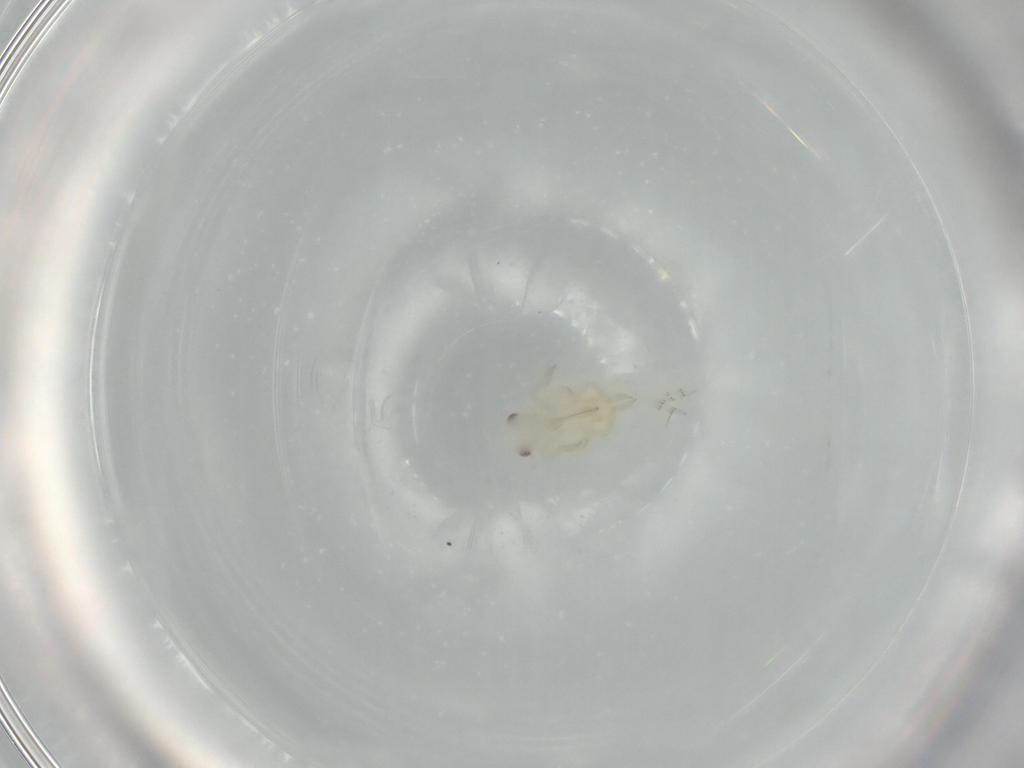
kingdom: Animalia
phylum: Arthropoda
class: Insecta
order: Hemiptera
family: Flatidae
